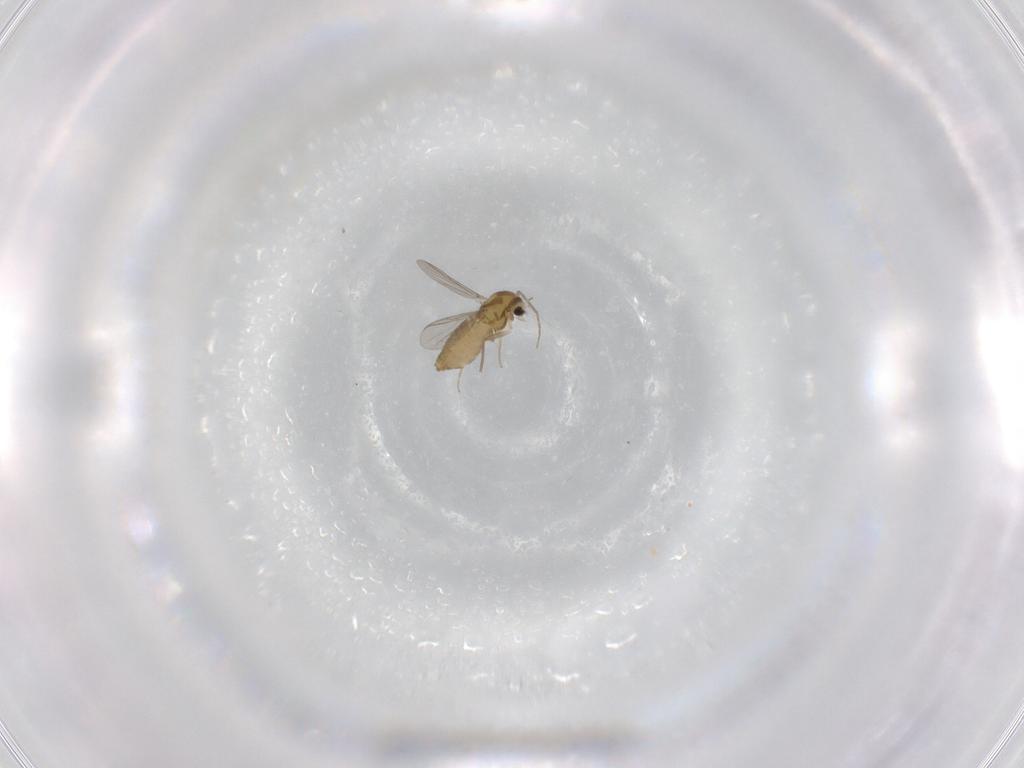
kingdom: Animalia
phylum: Arthropoda
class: Insecta
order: Diptera
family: Chironomidae
